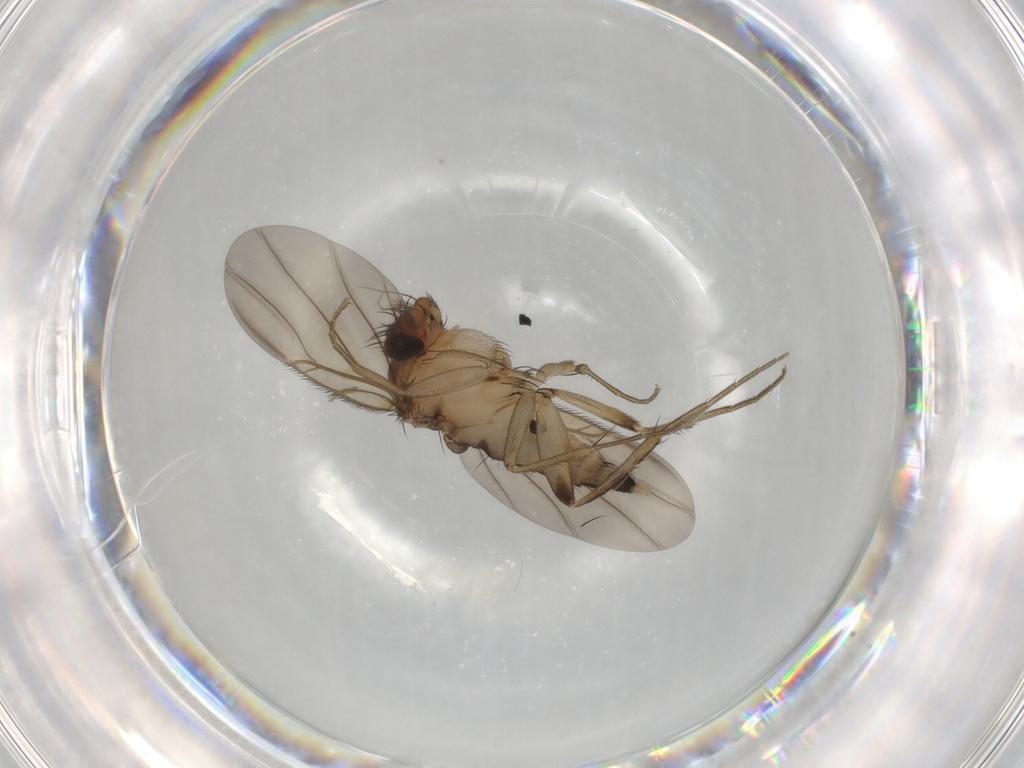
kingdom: Animalia
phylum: Arthropoda
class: Insecta
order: Diptera
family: Phoridae
